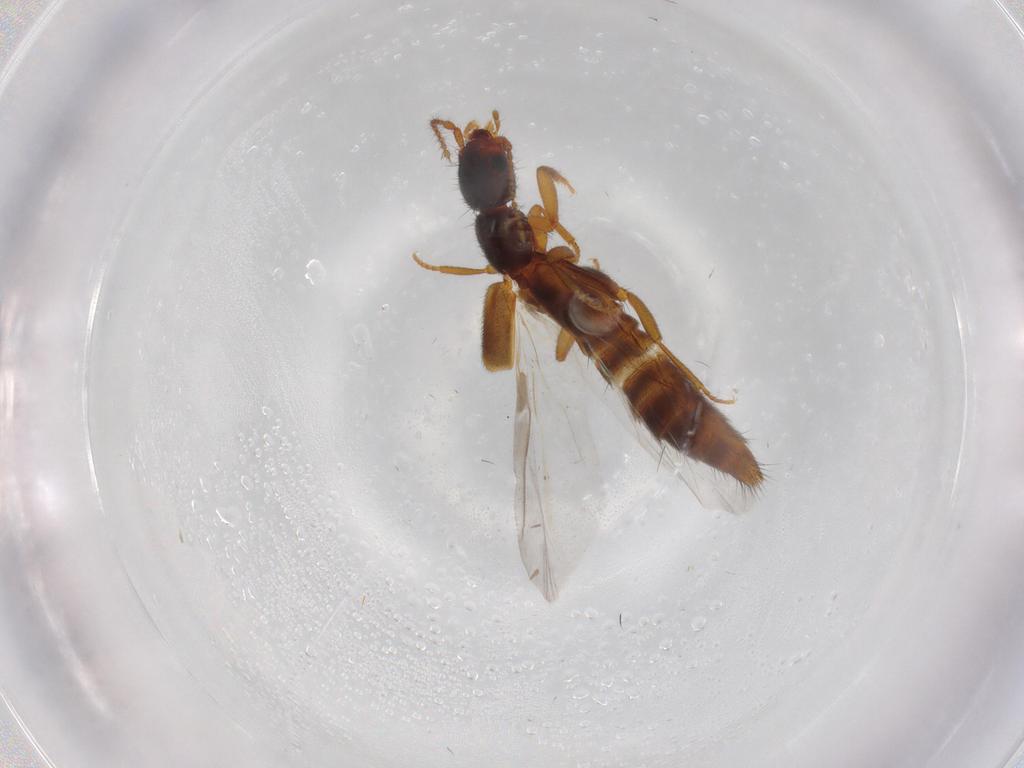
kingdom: Animalia
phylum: Arthropoda
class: Insecta
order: Coleoptera
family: Staphylinidae
